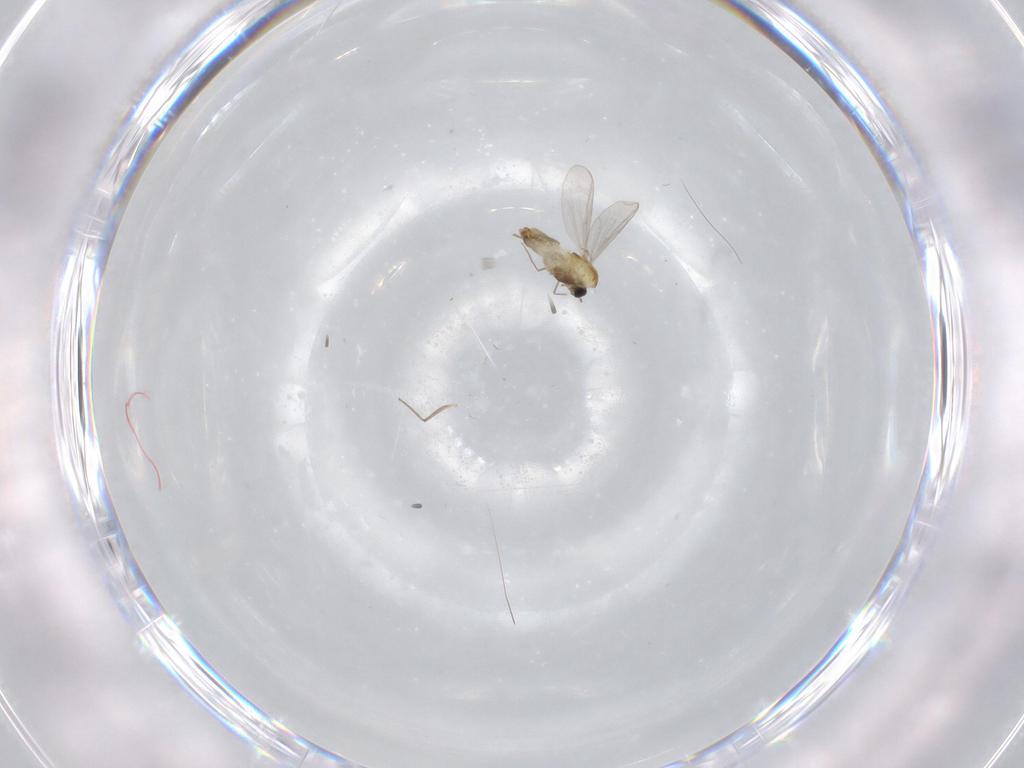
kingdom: Animalia
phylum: Arthropoda
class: Insecta
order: Diptera
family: Chironomidae
